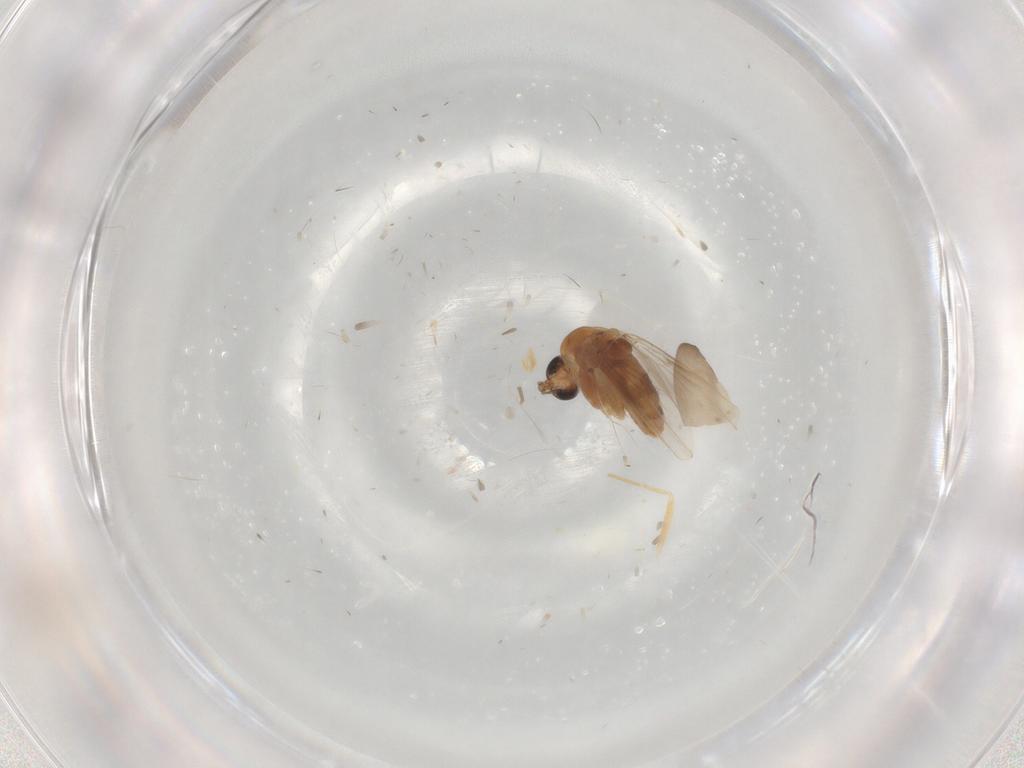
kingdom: Animalia
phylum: Arthropoda
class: Insecta
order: Diptera
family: Chironomidae
